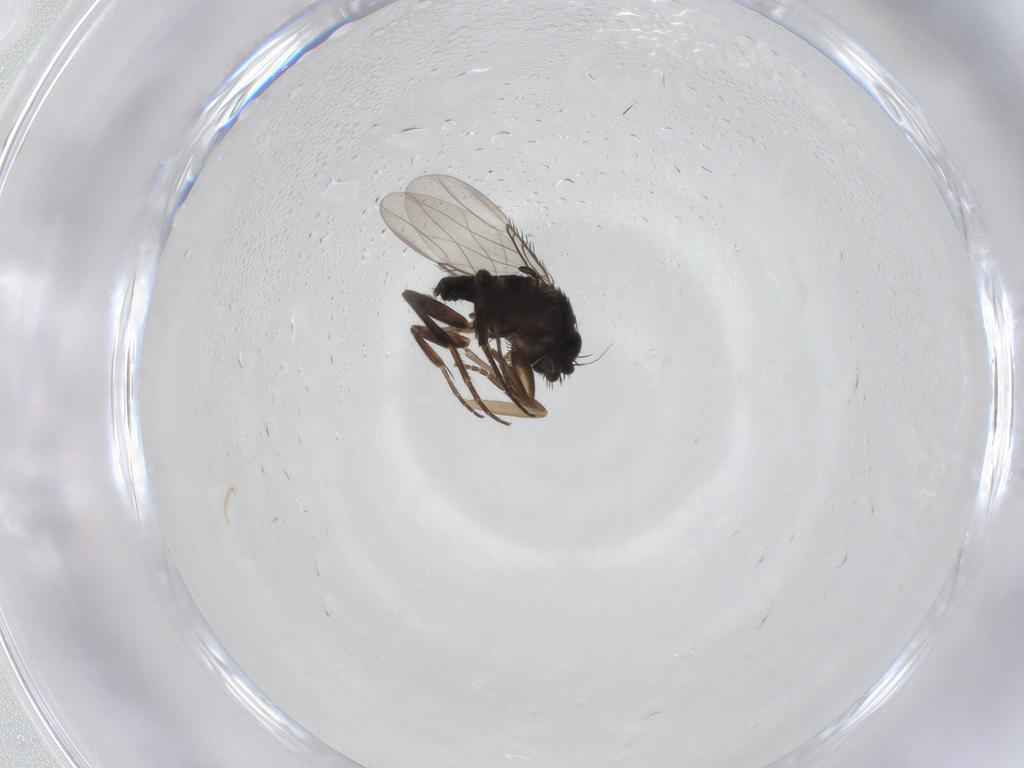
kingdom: Animalia
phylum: Arthropoda
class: Insecta
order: Diptera
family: Phoridae
